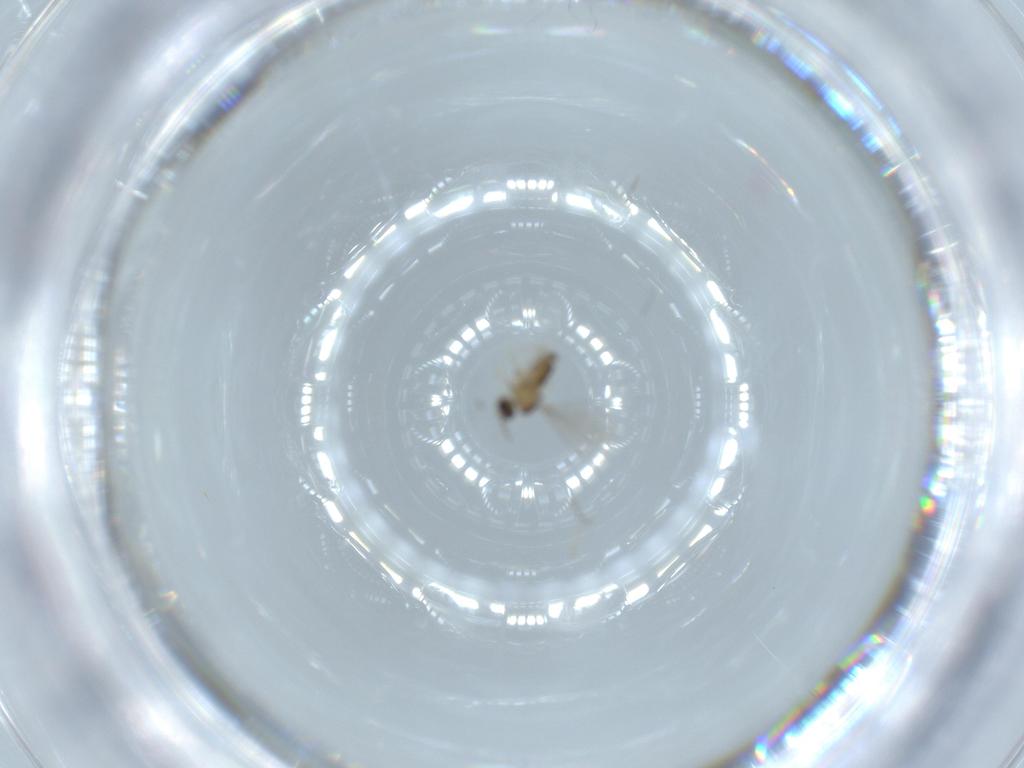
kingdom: Animalia
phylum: Arthropoda
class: Insecta
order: Diptera
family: Cecidomyiidae
